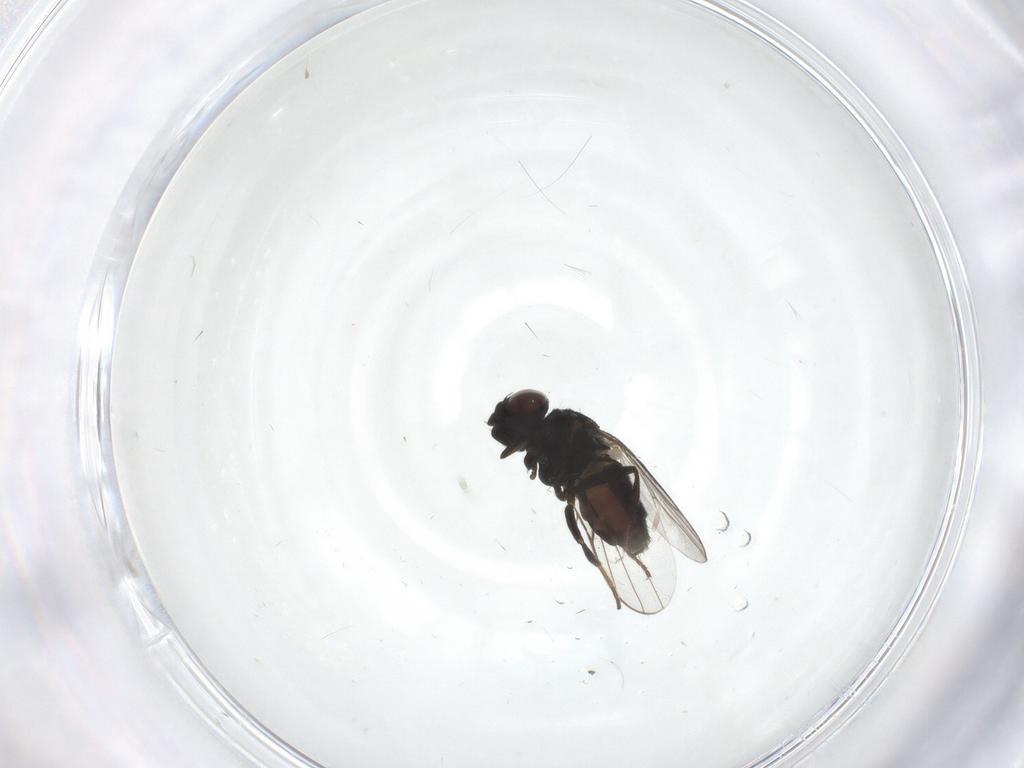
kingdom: Animalia
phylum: Arthropoda
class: Insecta
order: Diptera
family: Chloropidae
